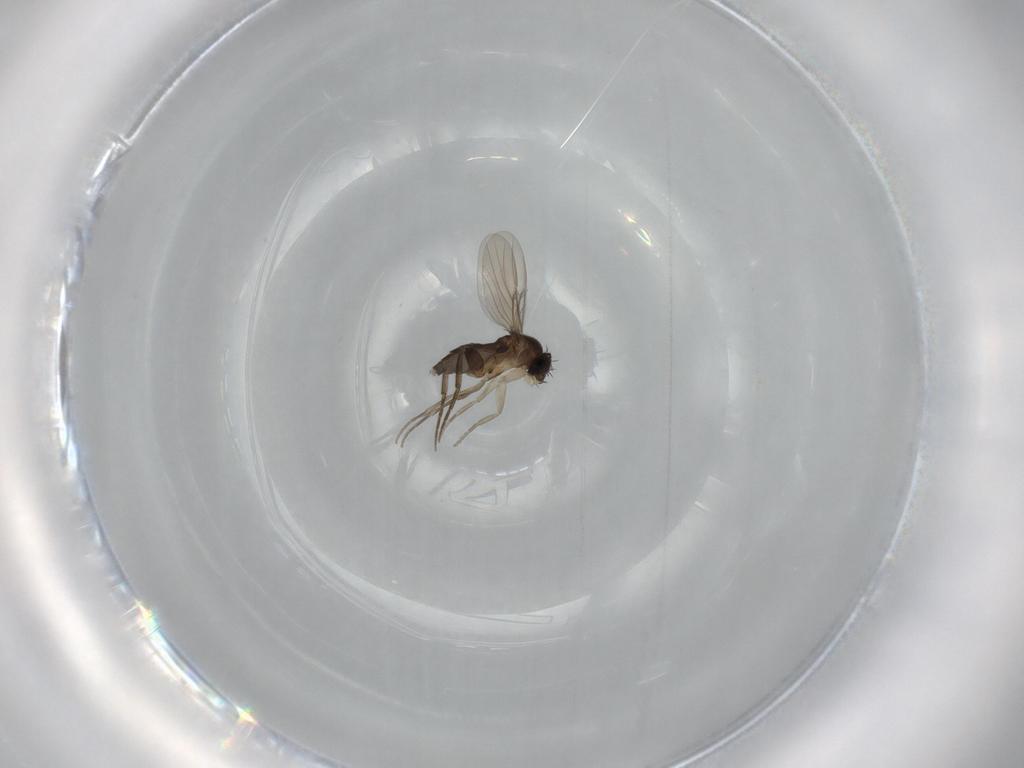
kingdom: Animalia
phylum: Arthropoda
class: Insecta
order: Diptera
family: Phoridae
